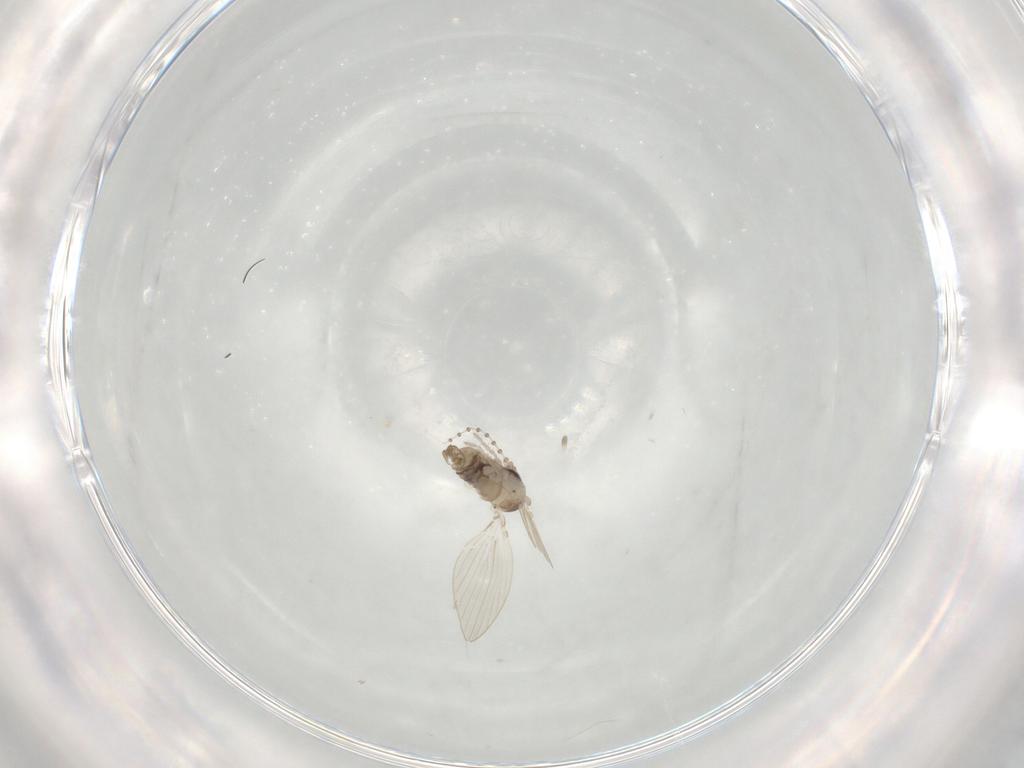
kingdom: Animalia
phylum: Arthropoda
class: Insecta
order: Diptera
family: Psychodidae
